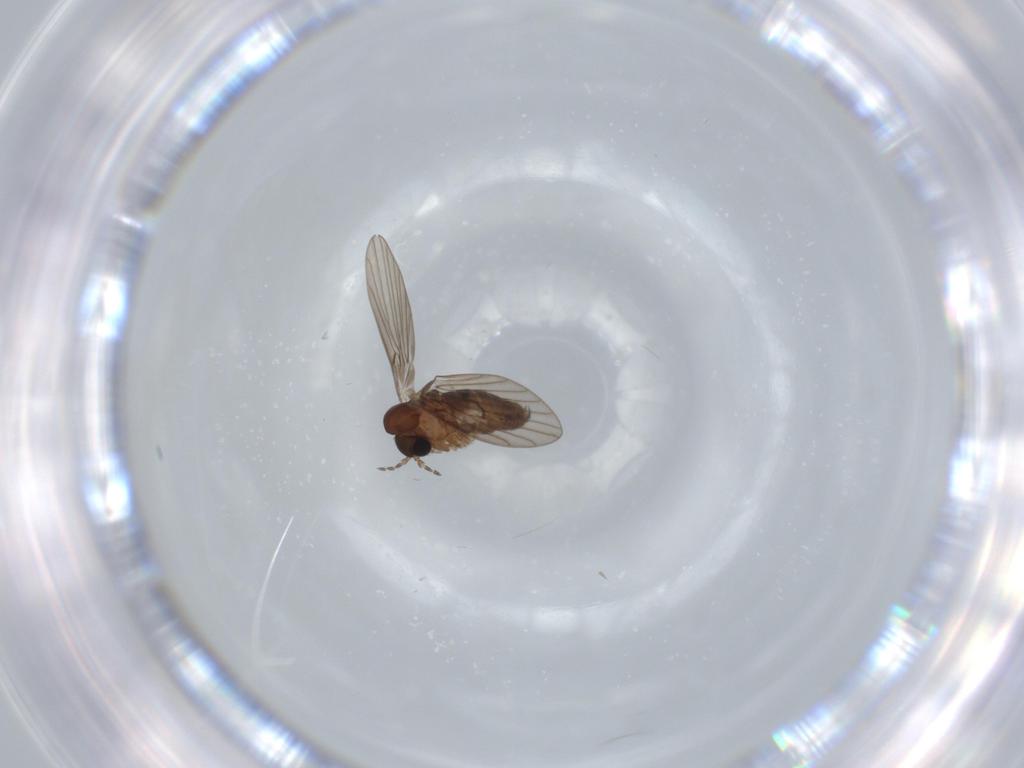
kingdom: Animalia
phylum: Arthropoda
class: Insecta
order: Diptera
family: Psychodidae
